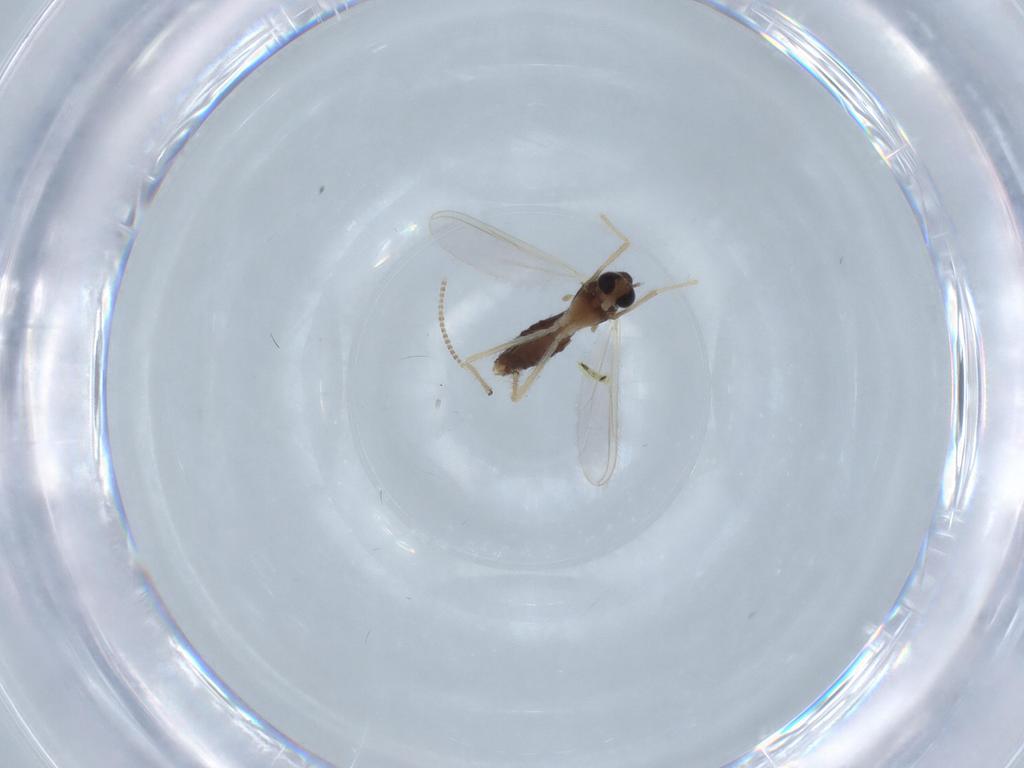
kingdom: Animalia
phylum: Arthropoda
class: Insecta
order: Diptera
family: Chironomidae
